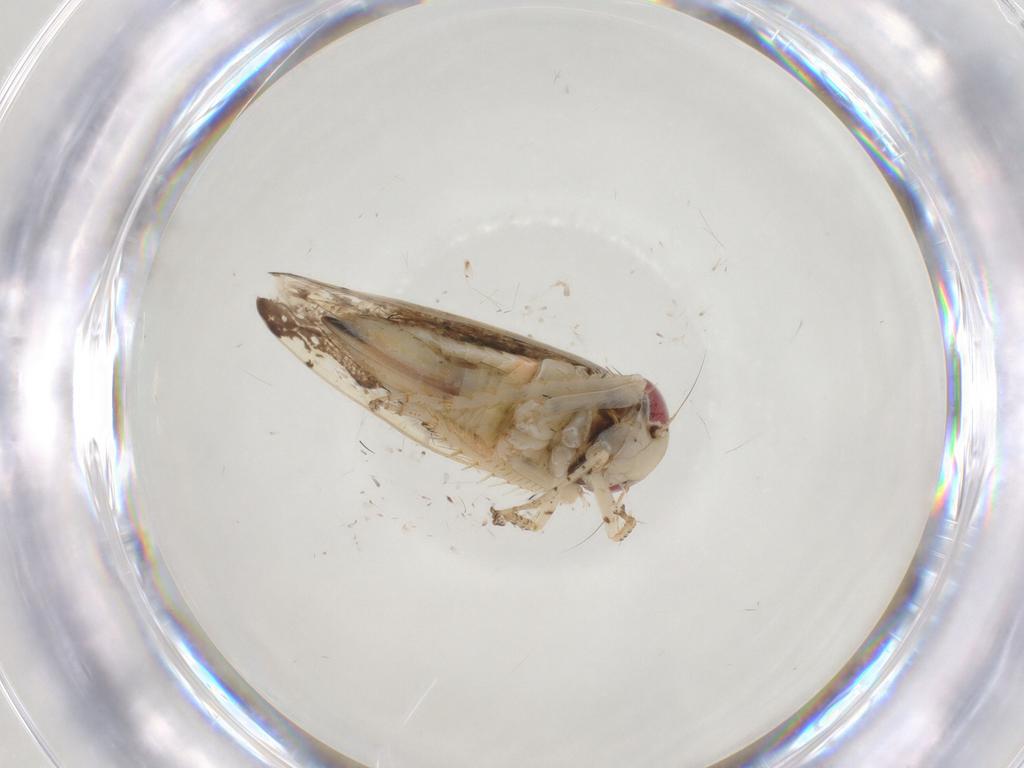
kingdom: Animalia
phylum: Arthropoda
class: Insecta
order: Hemiptera
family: Cicadellidae
